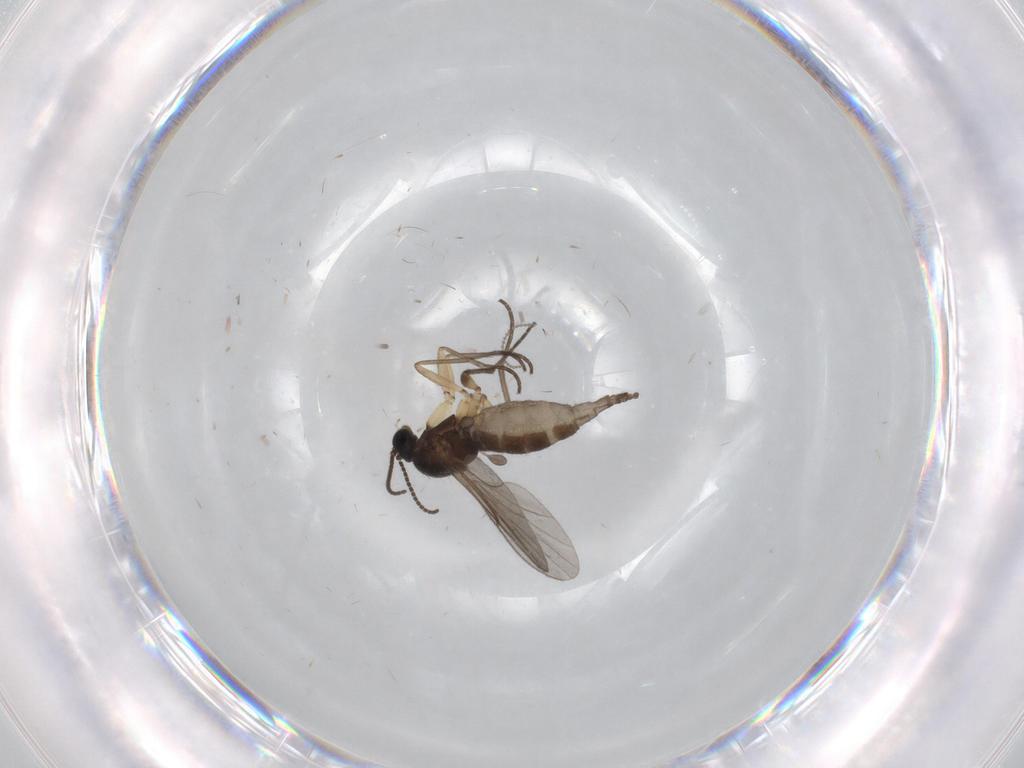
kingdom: Animalia
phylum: Arthropoda
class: Insecta
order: Diptera
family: Sciaridae
